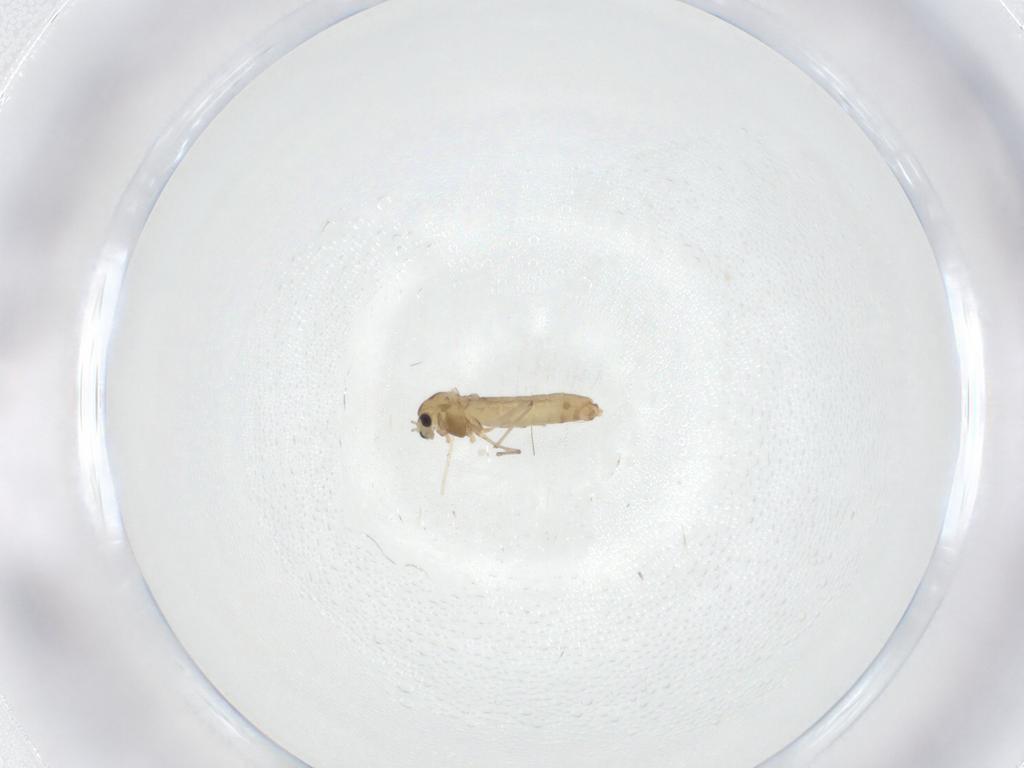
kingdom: Animalia
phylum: Arthropoda
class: Insecta
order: Diptera
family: Chironomidae
